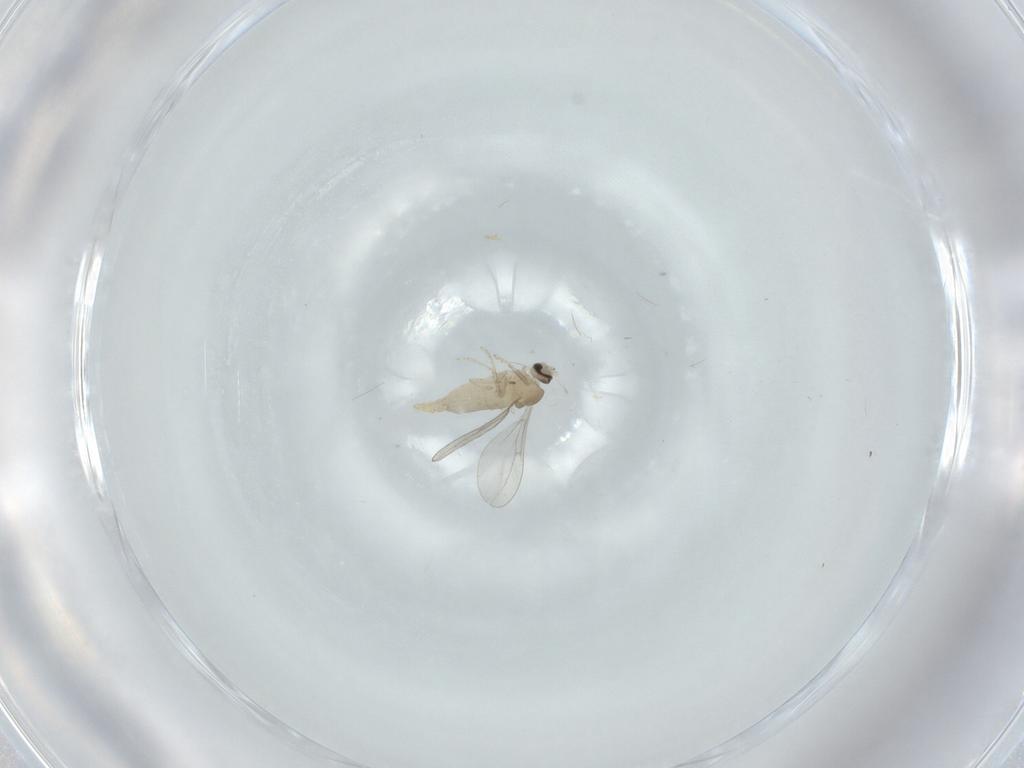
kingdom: Animalia
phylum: Arthropoda
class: Insecta
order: Diptera
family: Cecidomyiidae
